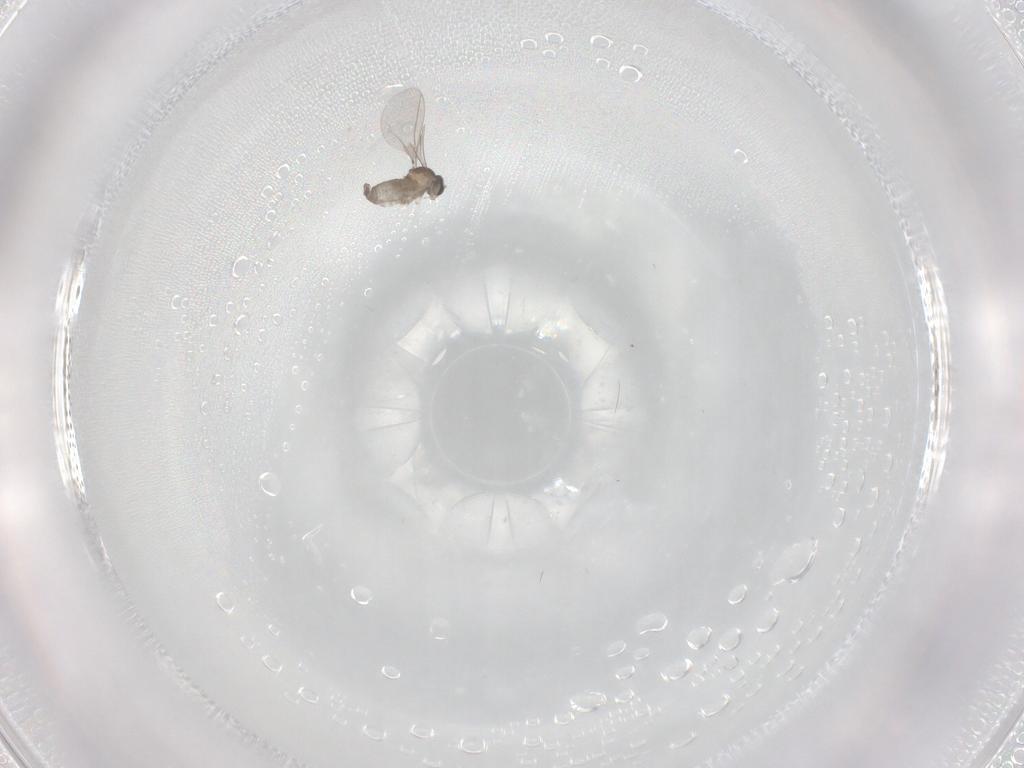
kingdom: Animalia
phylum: Arthropoda
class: Insecta
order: Diptera
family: Cecidomyiidae
